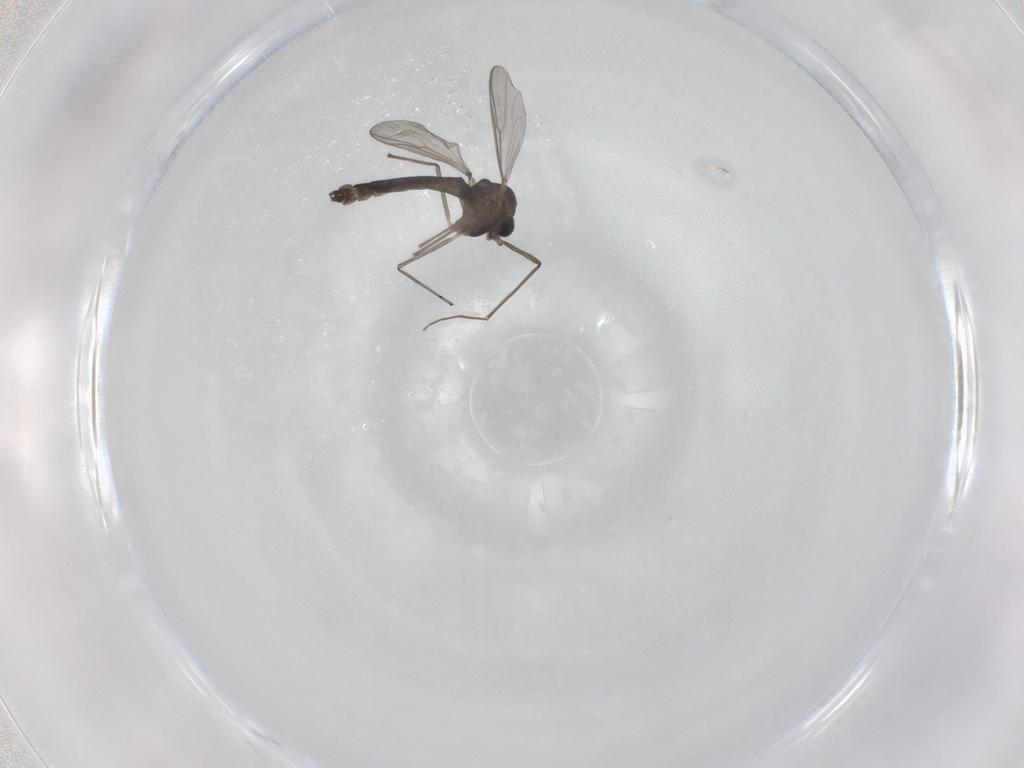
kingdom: Animalia
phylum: Arthropoda
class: Insecta
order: Diptera
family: Chironomidae
